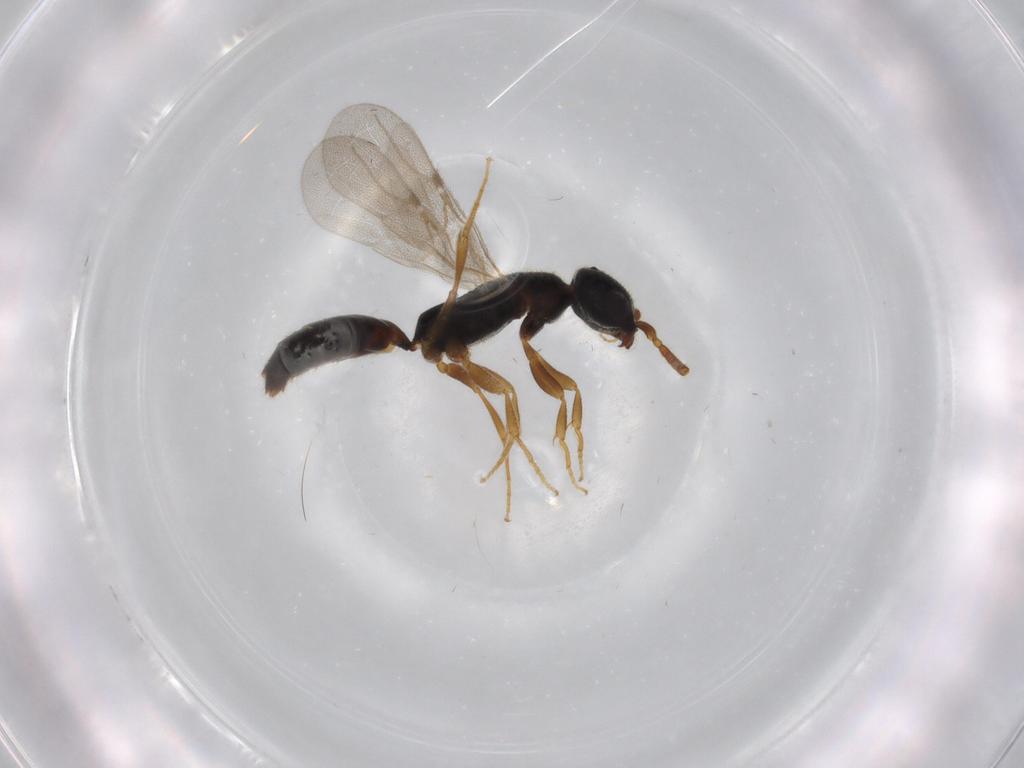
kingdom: Animalia
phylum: Arthropoda
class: Insecta
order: Hymenoptera
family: Bethylidae
